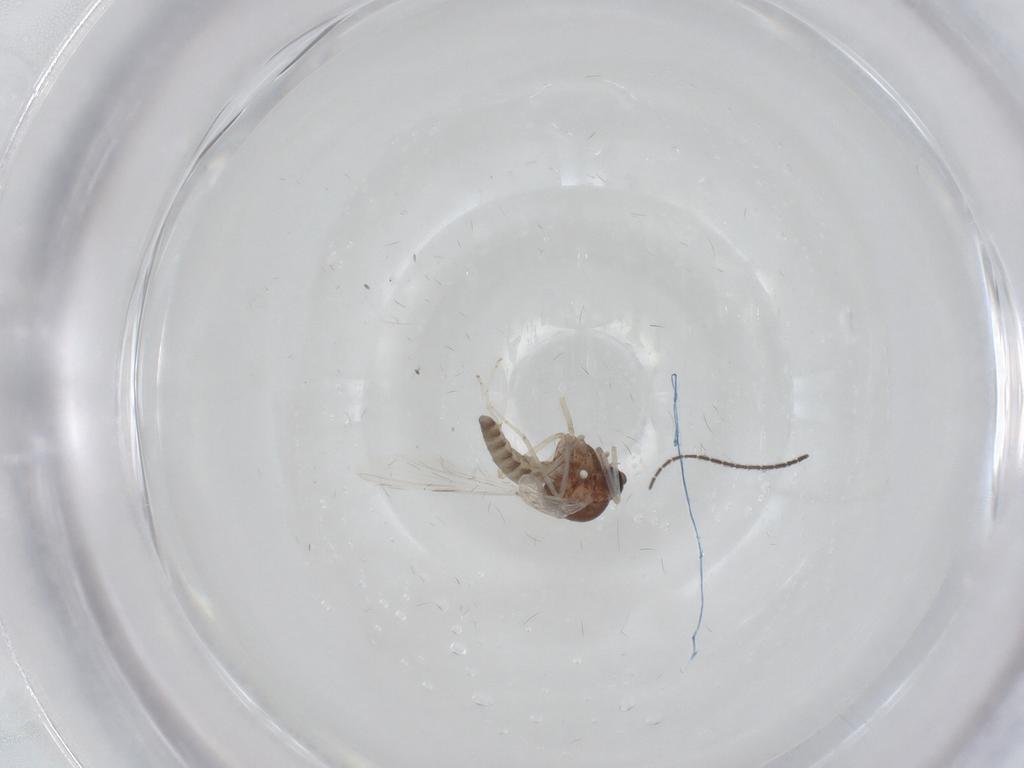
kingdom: Animalia
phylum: Arthropoda
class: Insecta
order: Diptera
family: Ceratopogonidae
